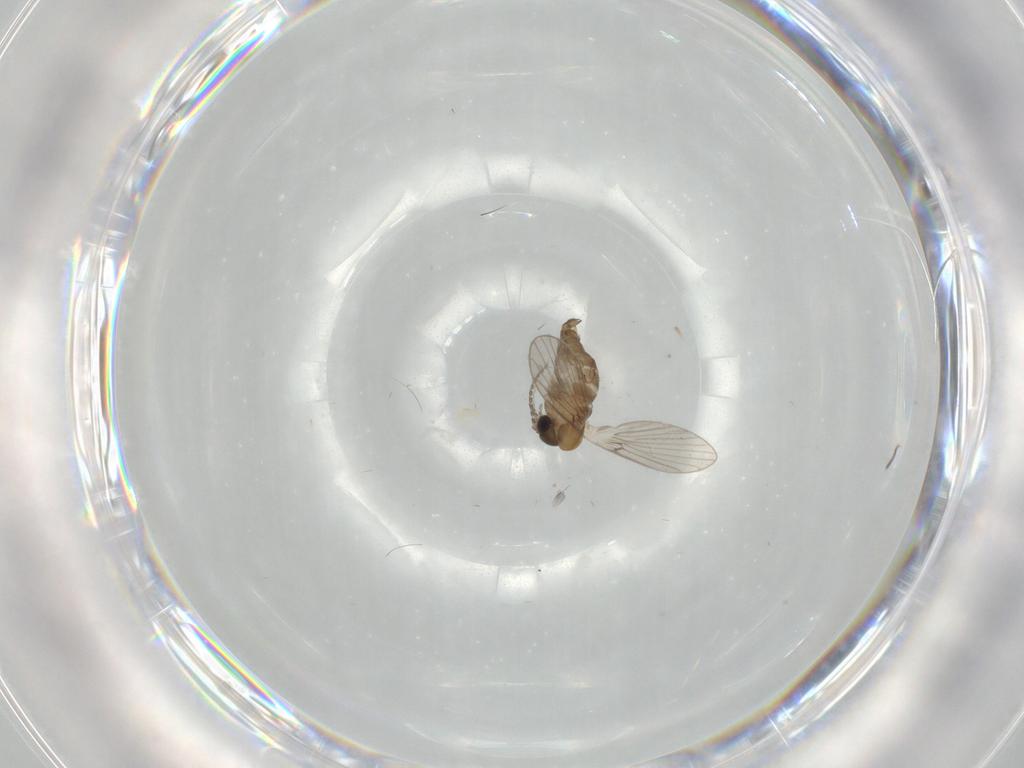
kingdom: Animalia
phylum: Arthropoda
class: Insecta
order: Diptera
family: Psychodidae
